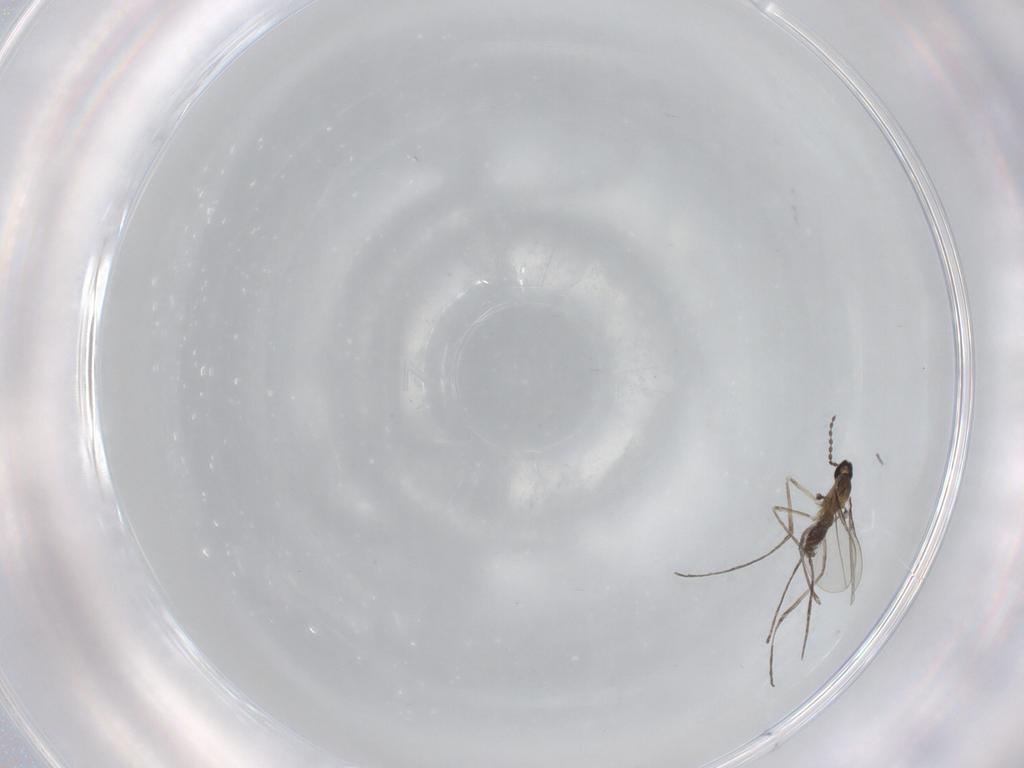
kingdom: Animalia
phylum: Arthropoda
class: Insecta
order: Diptera
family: Cecidomyiidae
